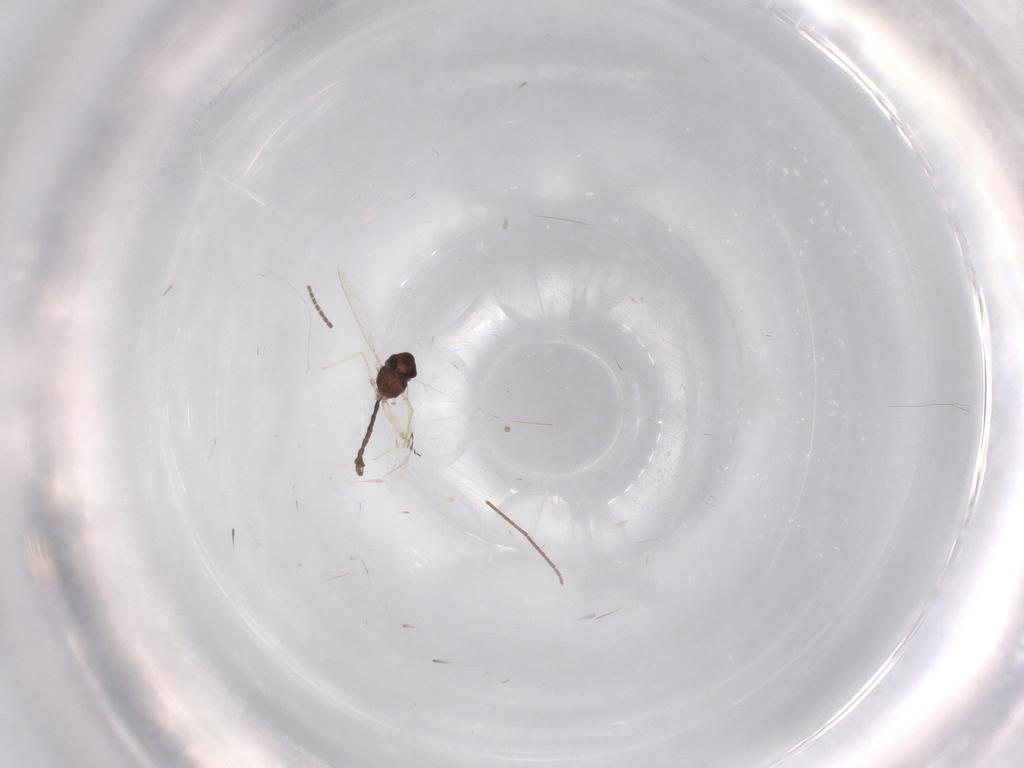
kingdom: Animalia
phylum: Arthropoda
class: Insecta
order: Diptera
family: Chironomidae
